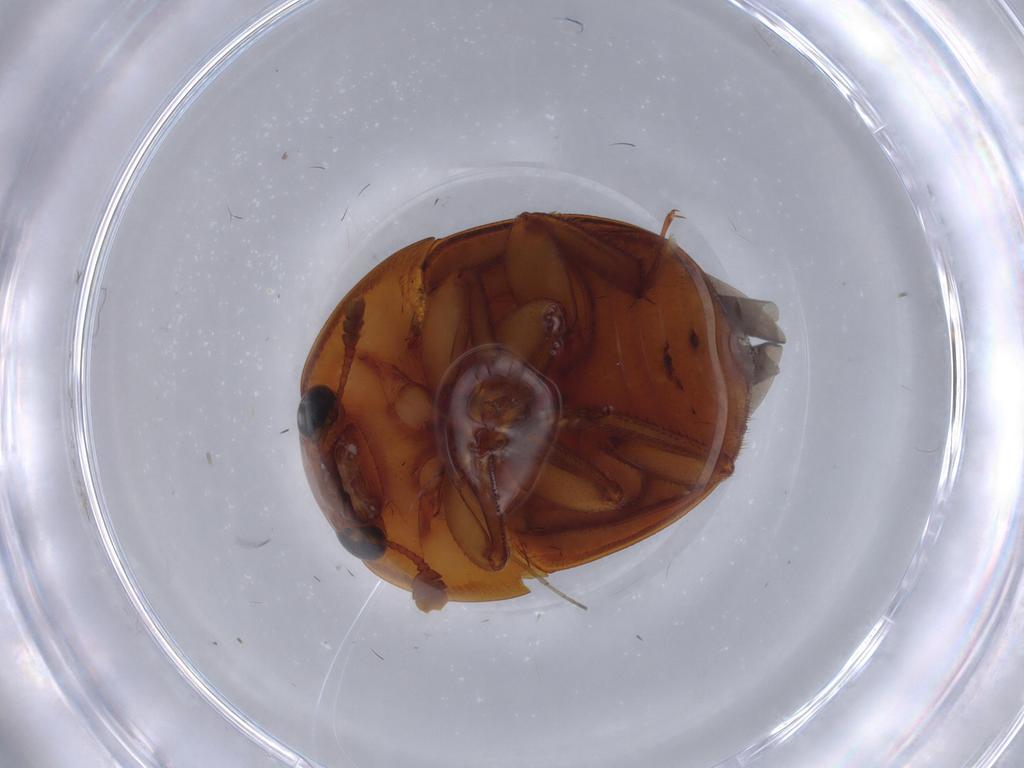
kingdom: Animalia
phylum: Arthropoda
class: Insecta
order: Coleoptera
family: Nitidulidae
